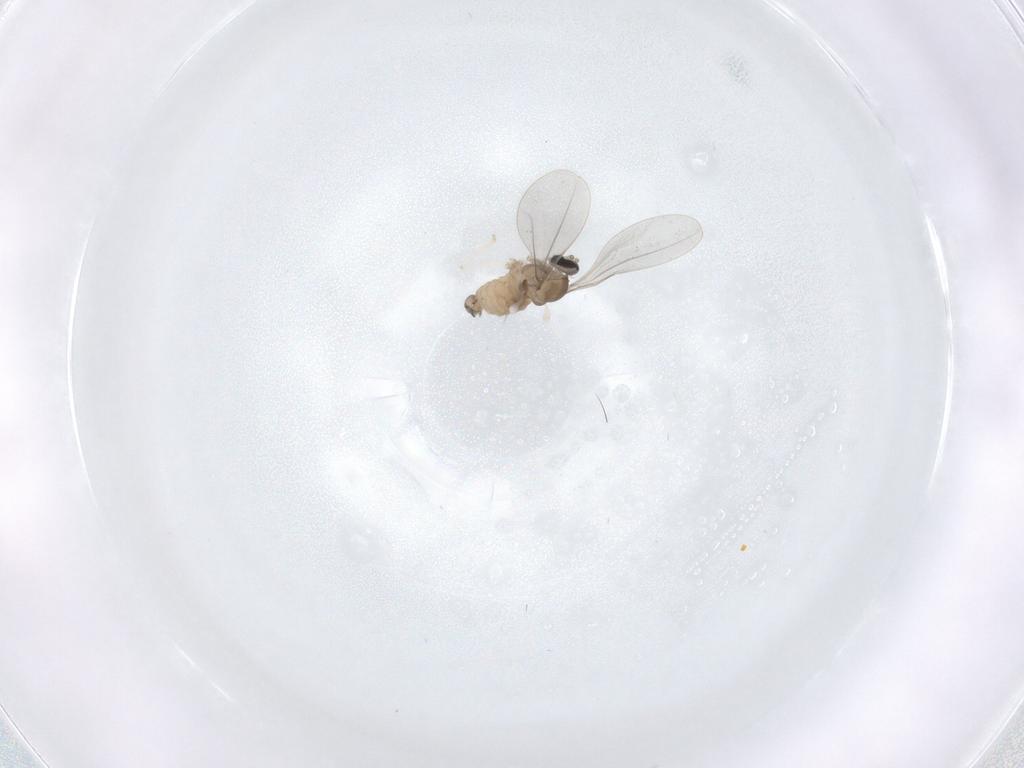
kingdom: Animalia
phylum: Arthropoda
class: Insecta
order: Diptera
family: Cecidomyiidae
